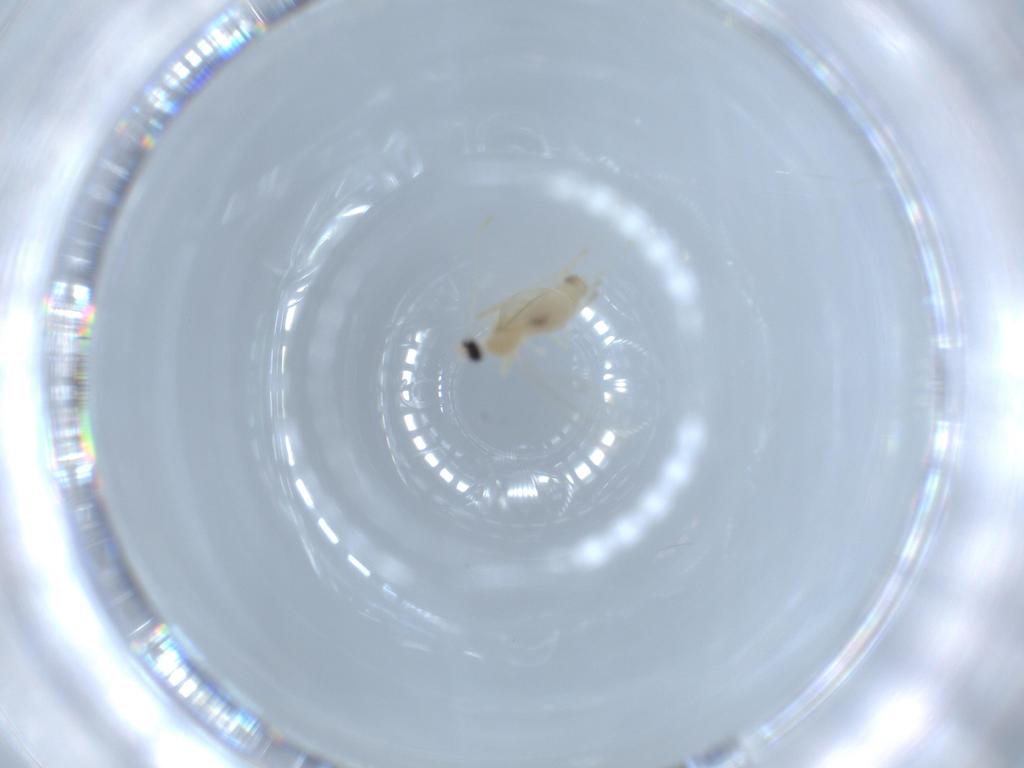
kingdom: Animalia
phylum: Arthropoda
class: Insecta
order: Diptera
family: Cecidomyiidae
